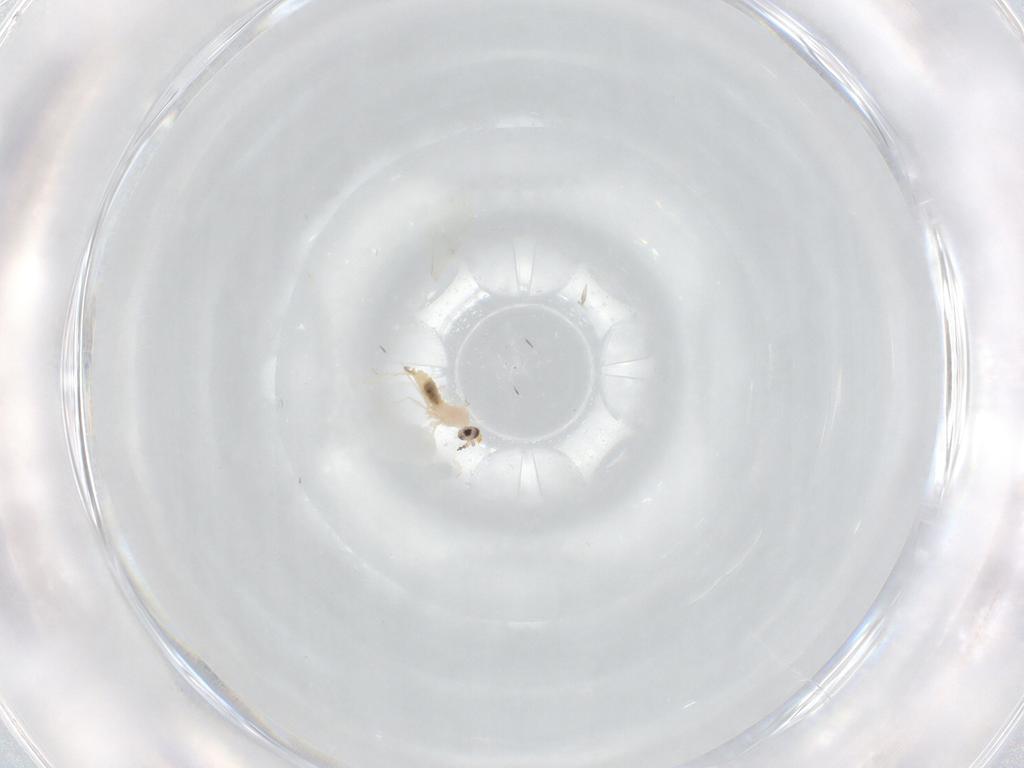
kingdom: Animalia
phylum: Arthropoda
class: Insecta
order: Diptera
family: Cecidomyiidae
